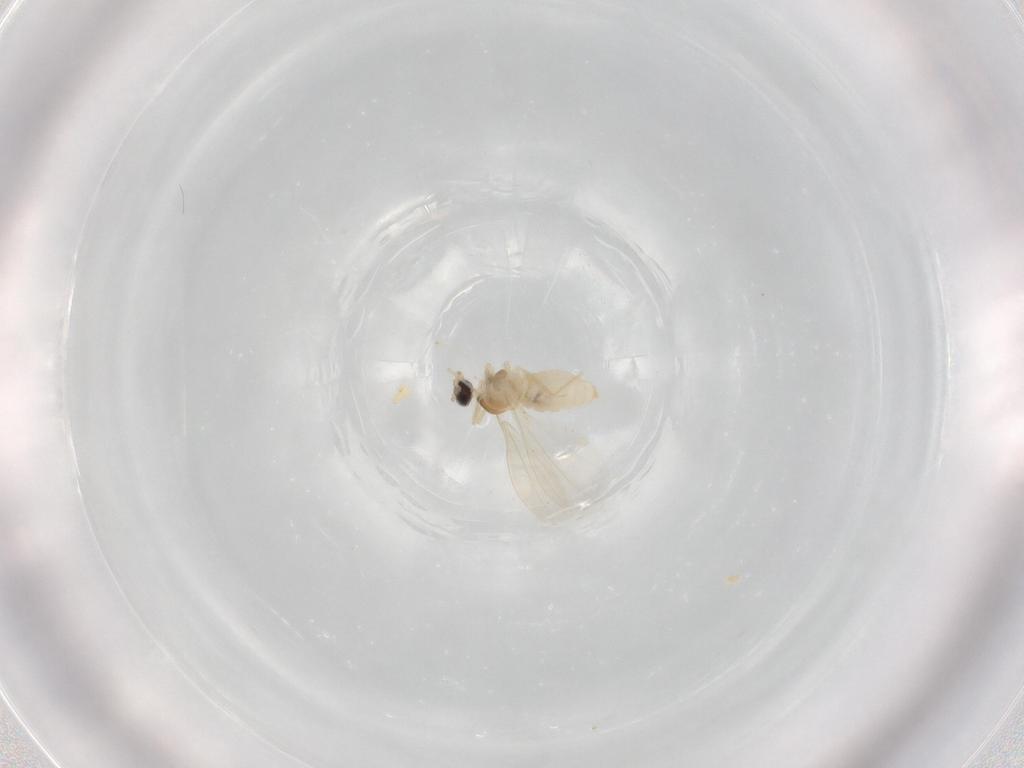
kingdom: Animalia
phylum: Arthropoda
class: Insecta
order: Diptera
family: Cecidomyiidae
